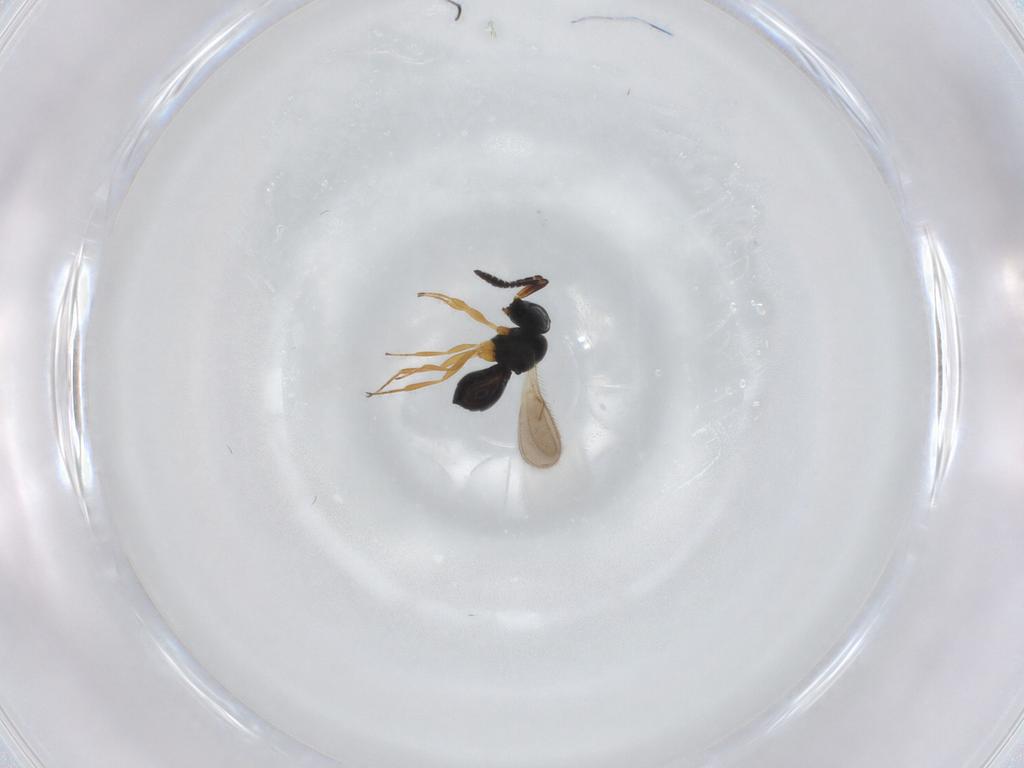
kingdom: Animalia
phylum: Arthropoda
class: Insecta
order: Hymenoptera
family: Scelionidae
